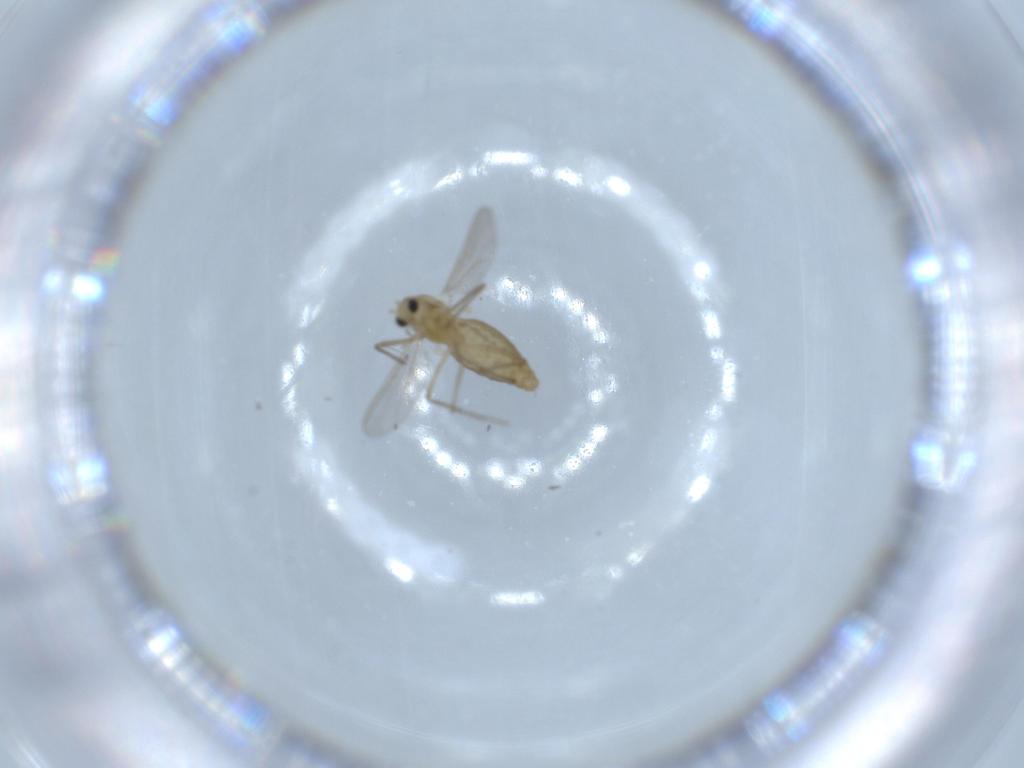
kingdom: Animalia
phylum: Arthropoda
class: Insecta
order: Diptera
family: Chironomidae
